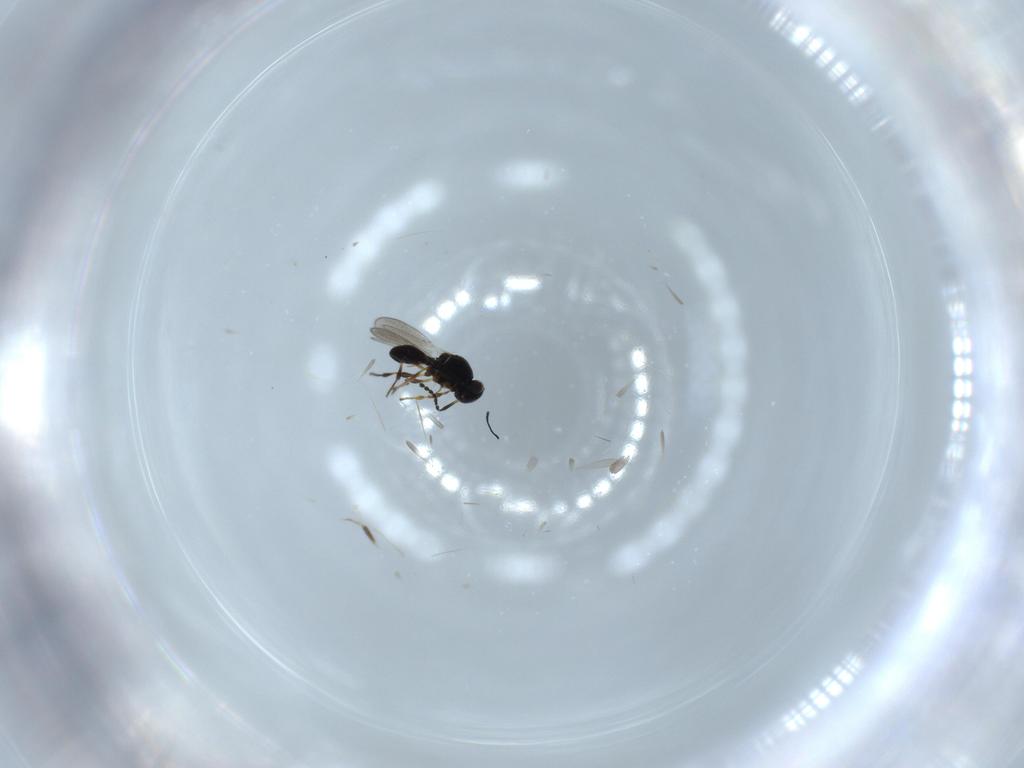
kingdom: Animalia
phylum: Arthropoda
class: Insecta
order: Hymenoptera
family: Scelionidae
